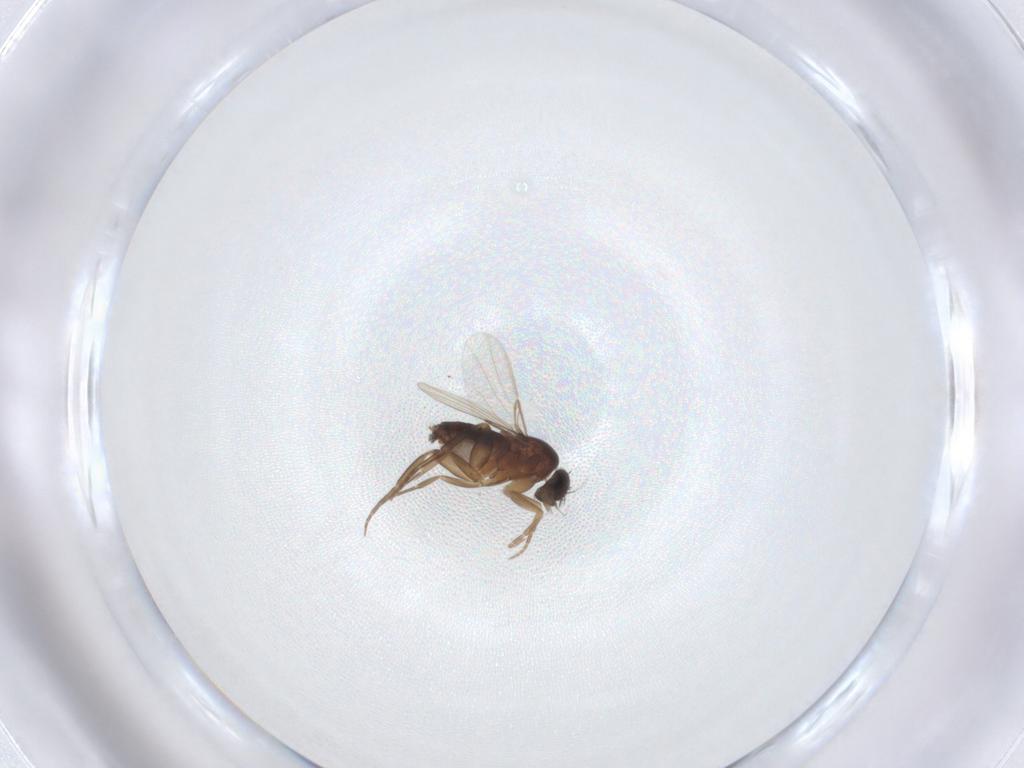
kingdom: Animalia
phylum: Arthropoda
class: Insecta
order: Diptera
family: Phoridae
